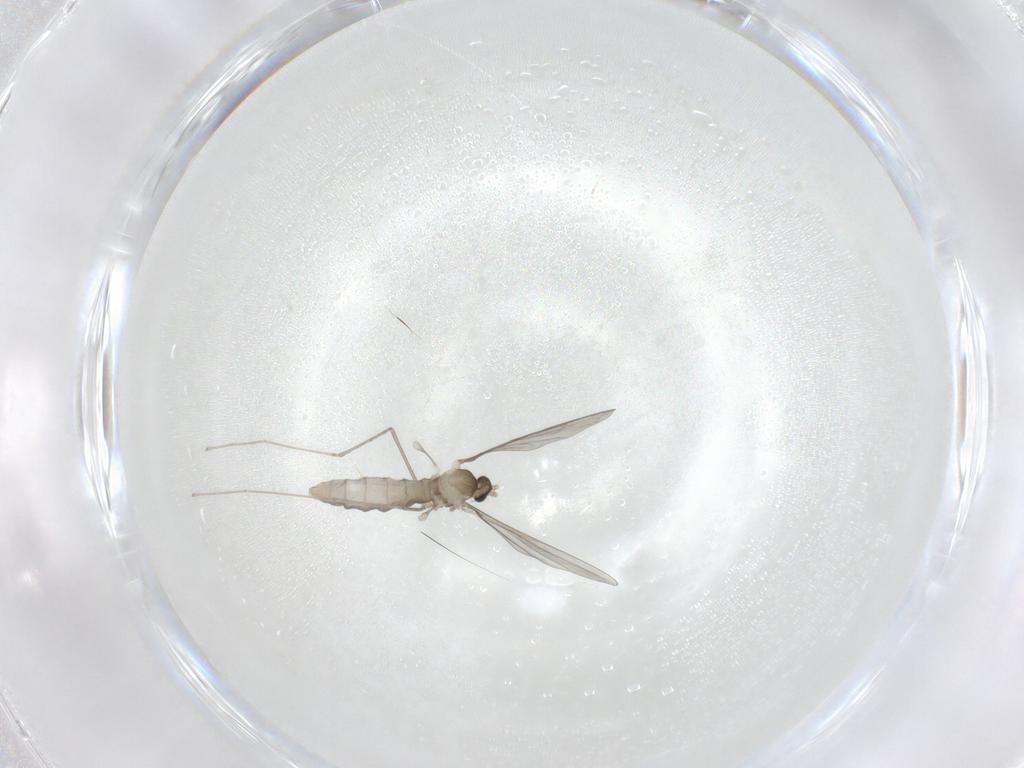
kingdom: Animalia
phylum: Arthropoda
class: Insecta
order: Diptera
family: Cecidomyiidae
